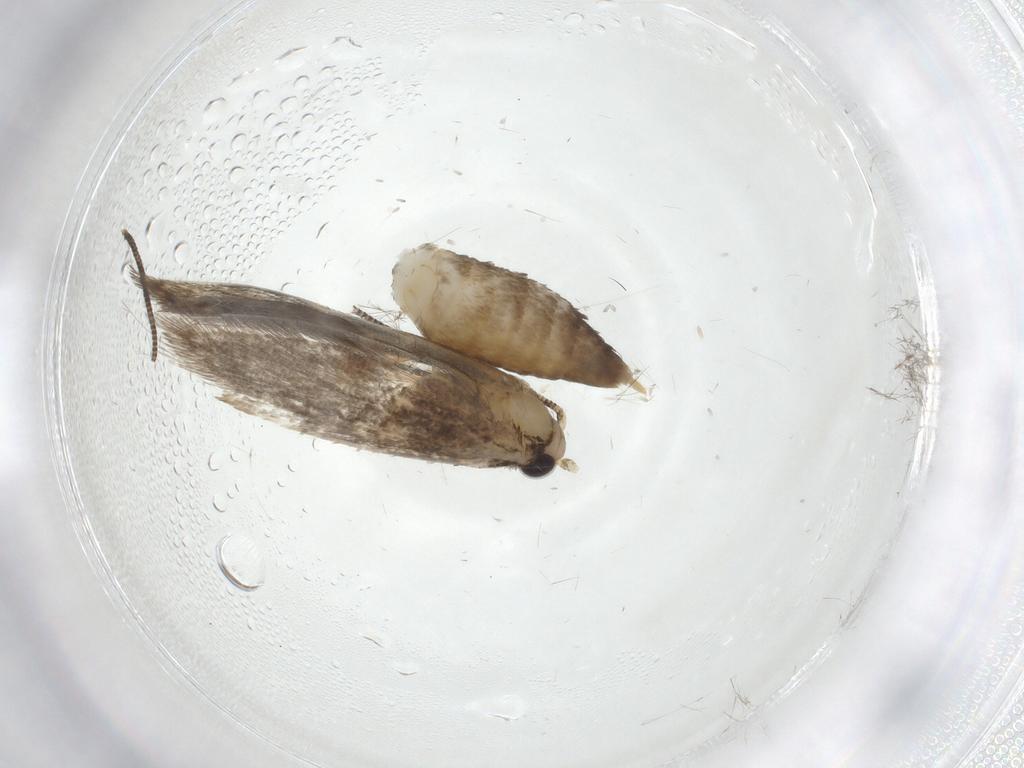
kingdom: Animalia
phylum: Arthropoda
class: Insecta
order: Lepidoptera
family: Tineidae
